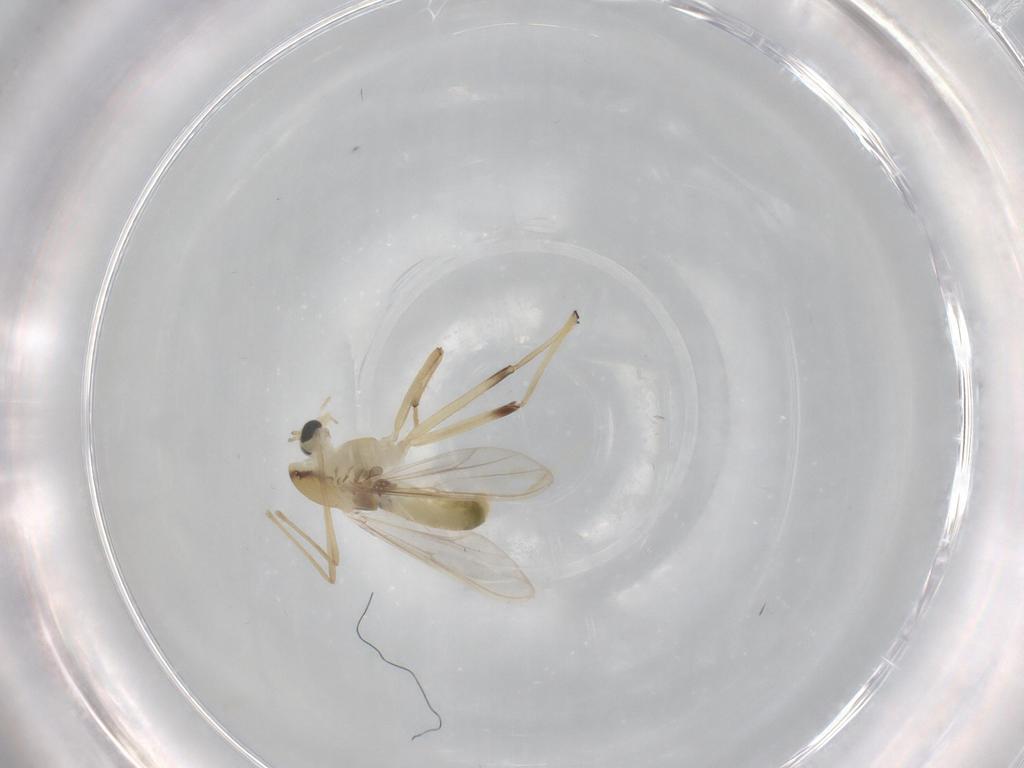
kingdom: Animalia
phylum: Arthropoda
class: Insecta
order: Diptera
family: Chironomidae
